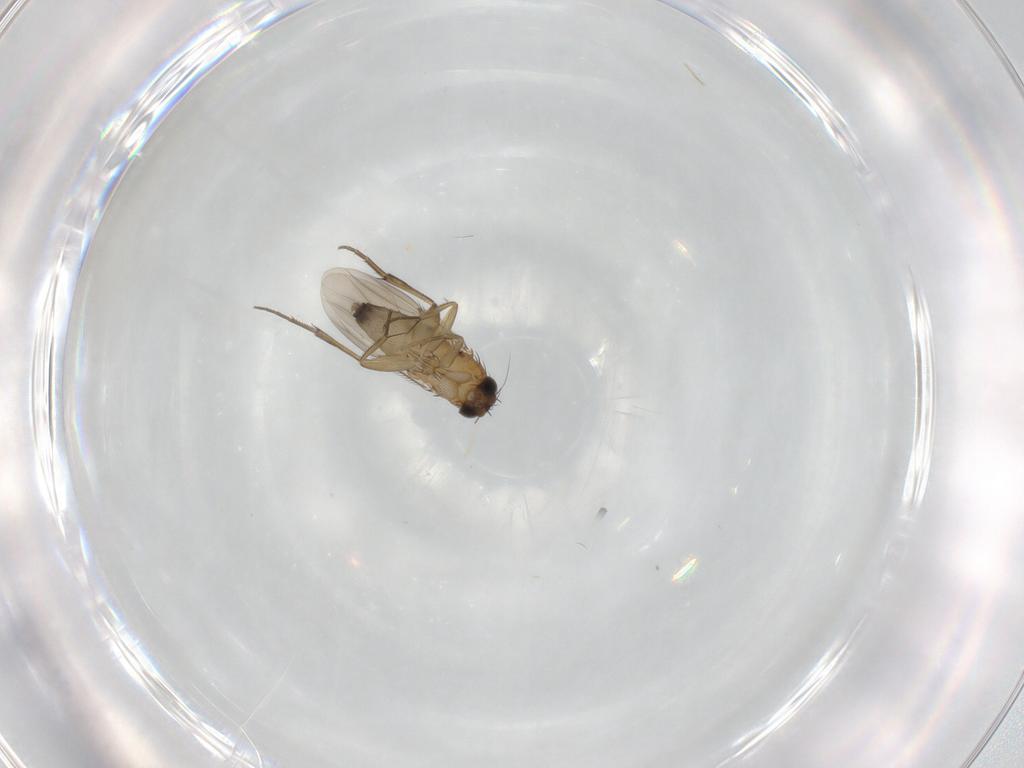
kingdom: Animalia
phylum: Arthropoda
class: Insecta
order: Diptera
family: Phoridae
